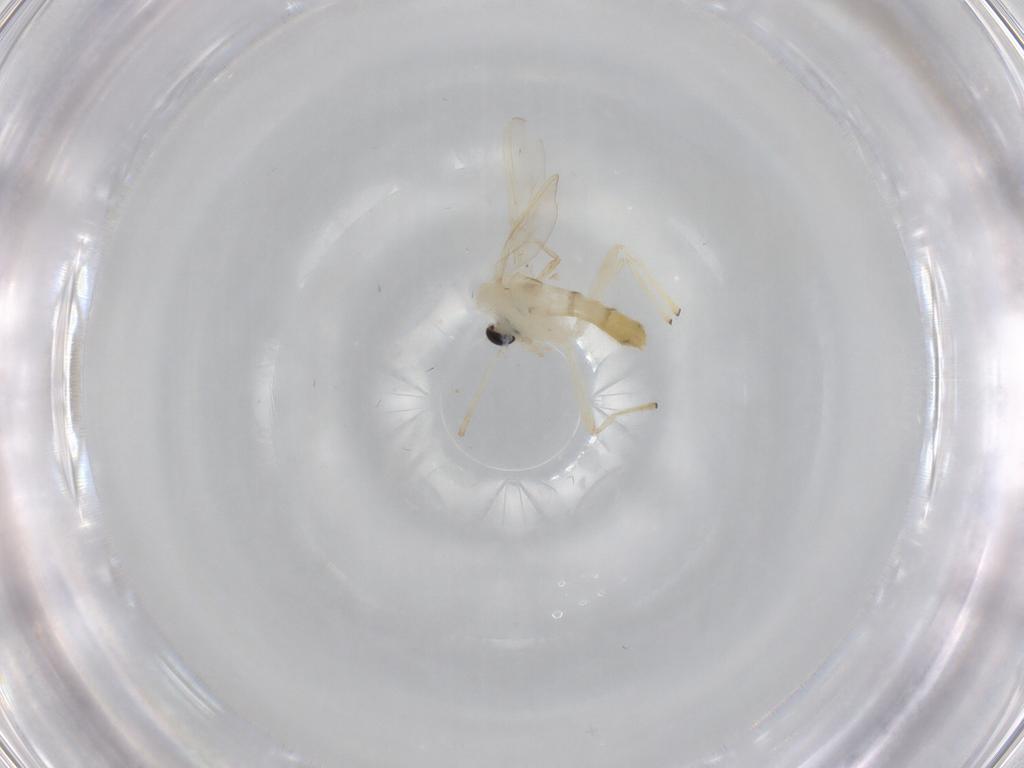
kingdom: Animalia
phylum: Arthropoda
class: Insecta
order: Diptera
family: Chironomidae
